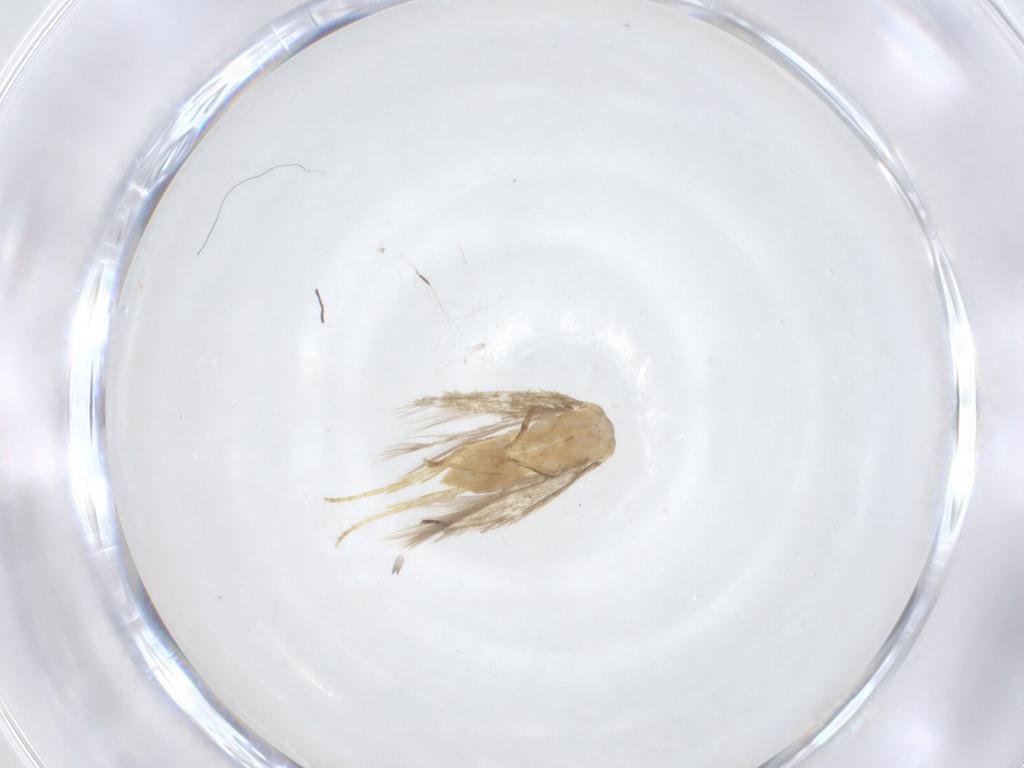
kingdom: Animalia
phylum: Arthropoda
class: Insecta
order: Lepidoptera
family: Nepticulidae
